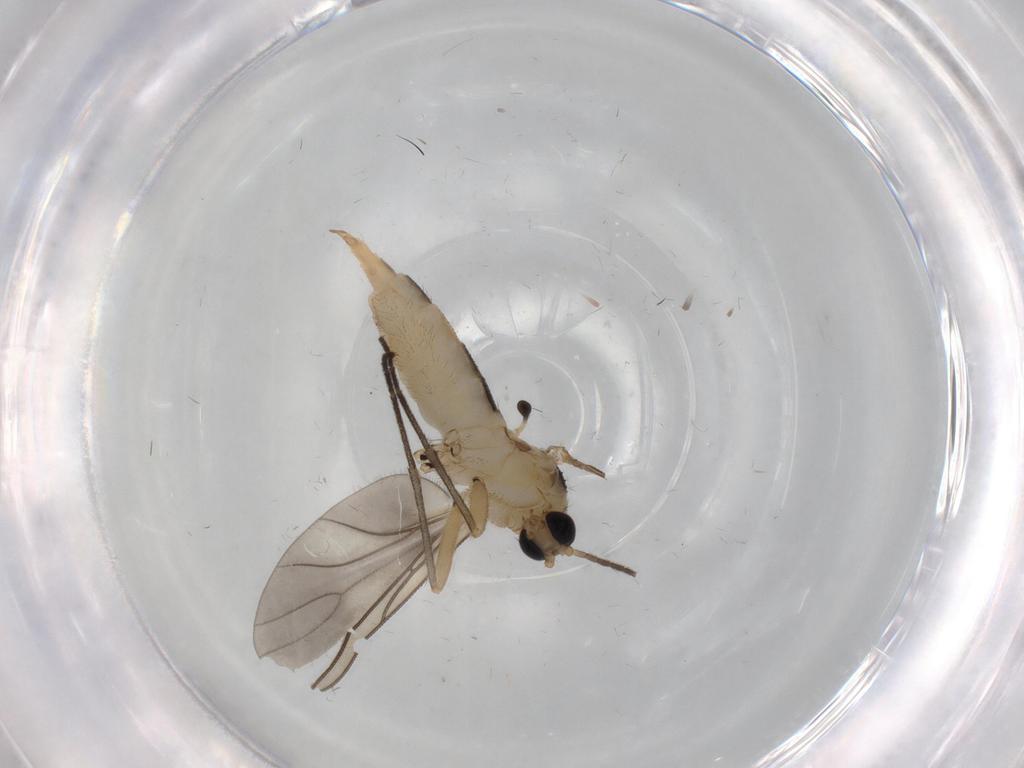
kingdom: Animalia
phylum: Arthropoda
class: Insecta
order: Diptera
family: Sciaridae
